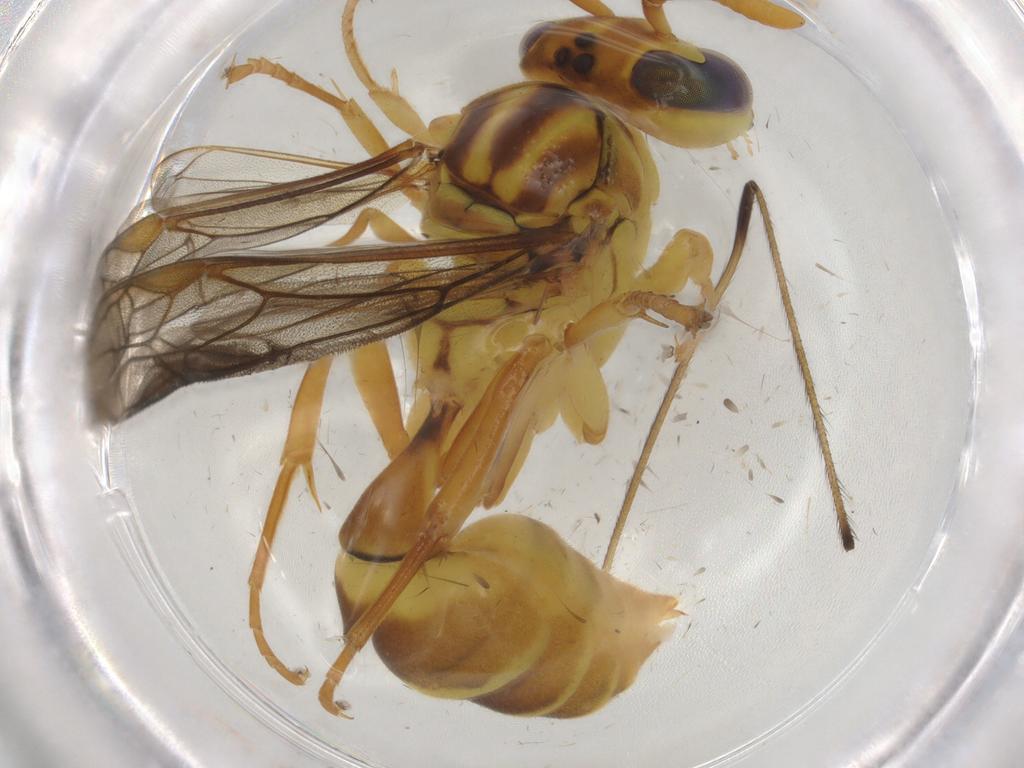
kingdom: Animalia
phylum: Arthropoda
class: Insecta
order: Hymenoptera
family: Vespidae
